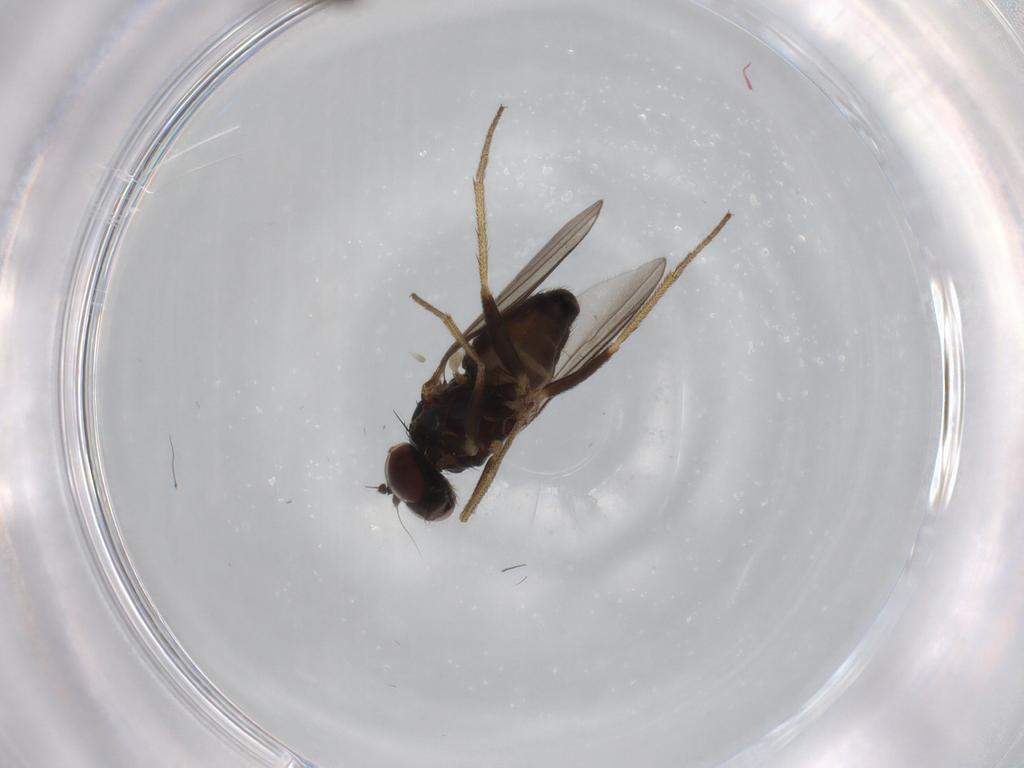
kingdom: Animalia
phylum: Arthropoda
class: Insecta
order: Diptera
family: Dolichopodidae
